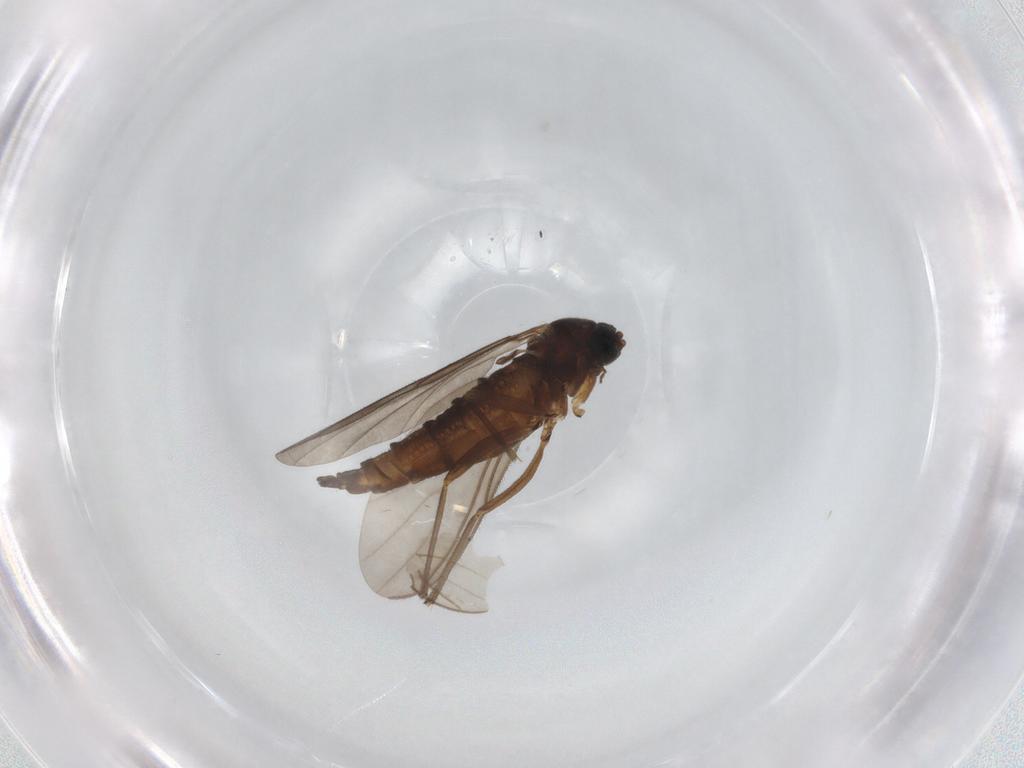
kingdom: Animalia
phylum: Arthropoda
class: Insecta
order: Diptera
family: Sciaridae
